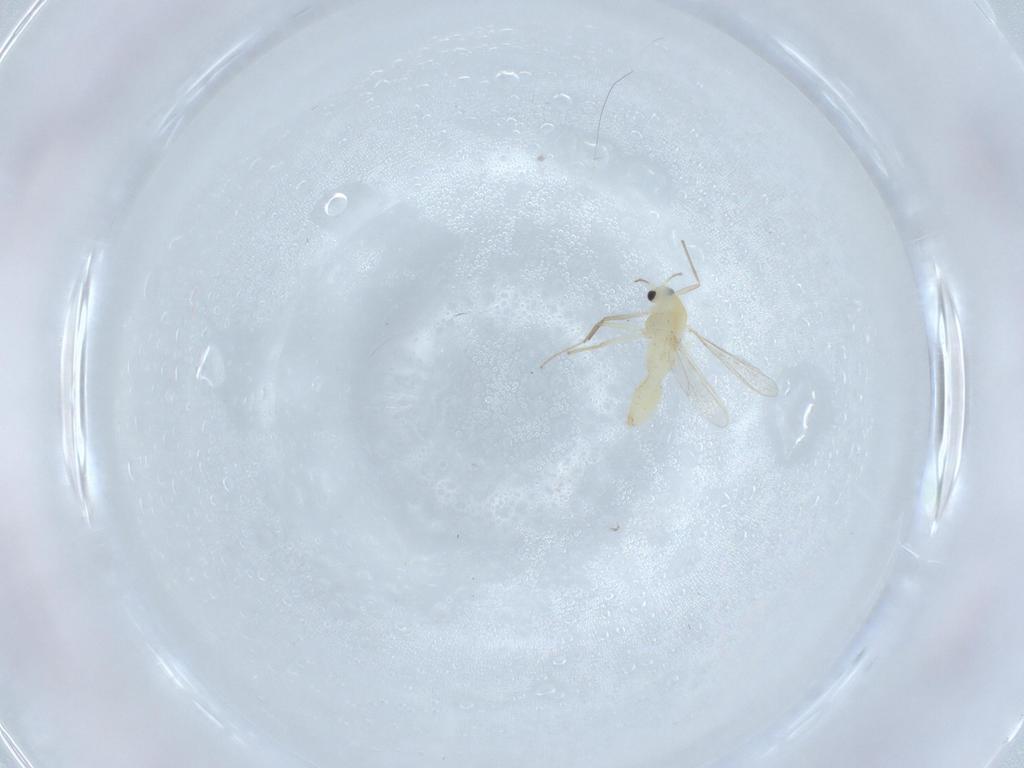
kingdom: Animalia
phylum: Arthropoda
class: Insecta
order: Diptera
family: Chironomidae
